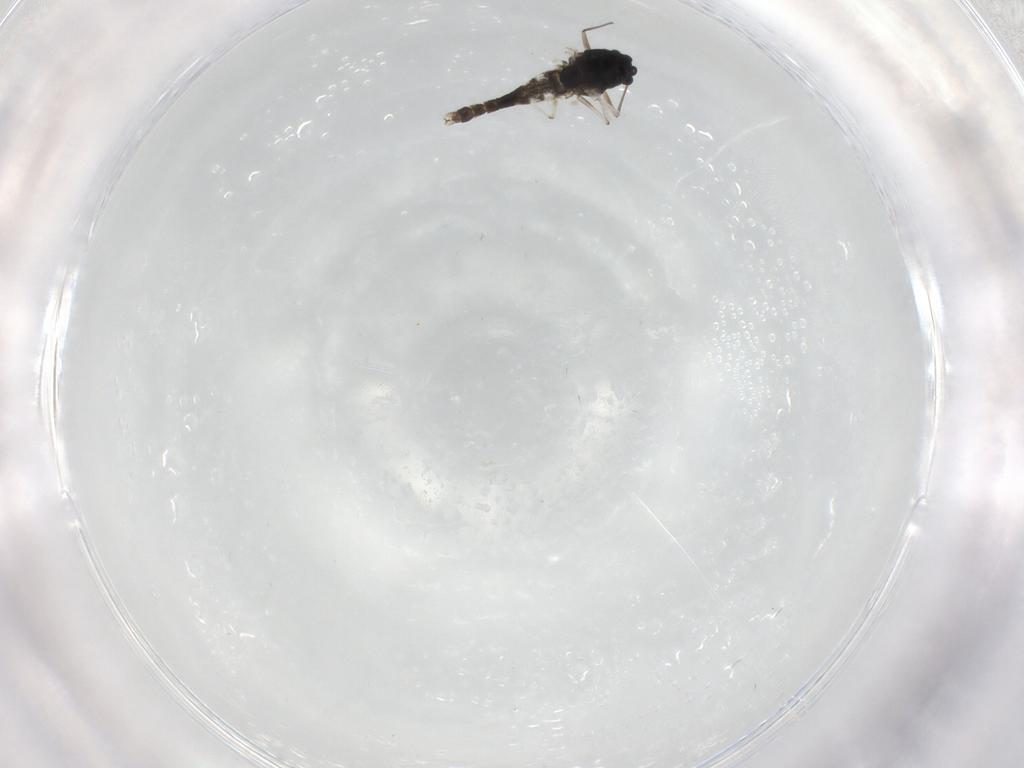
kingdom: Animalia
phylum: Arthropoda
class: Insecta
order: Diptera
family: Chironomidae
